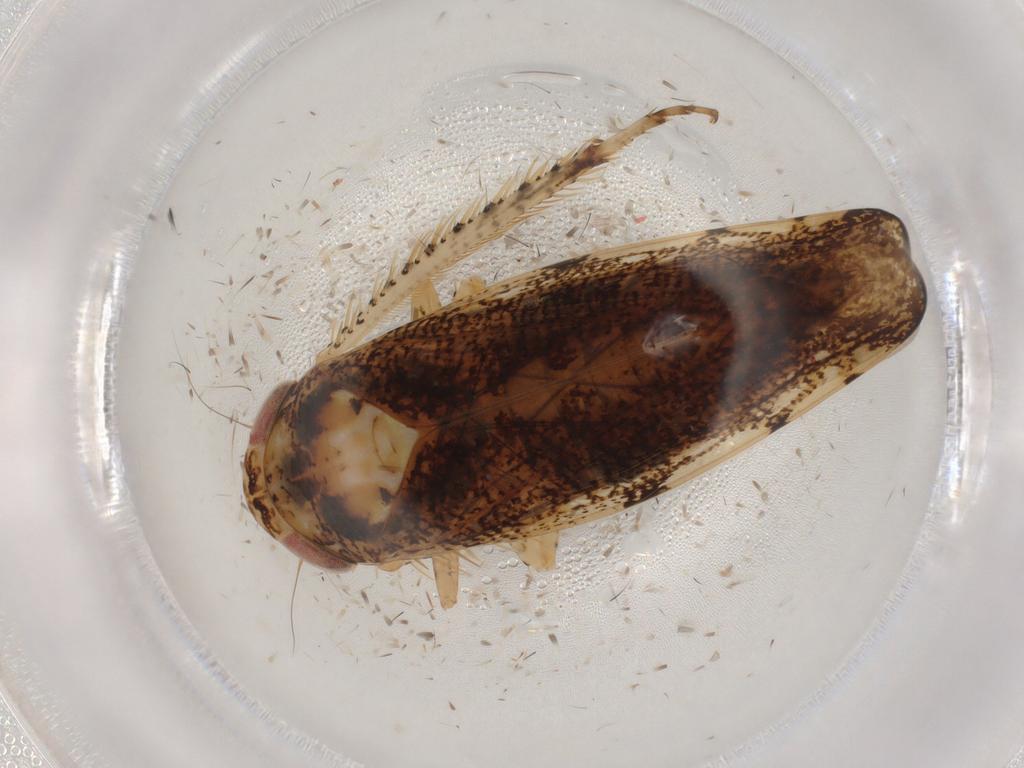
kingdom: Animalia
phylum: Arthropoda
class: Insecta
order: Hemiptera
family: Cicadellidae
